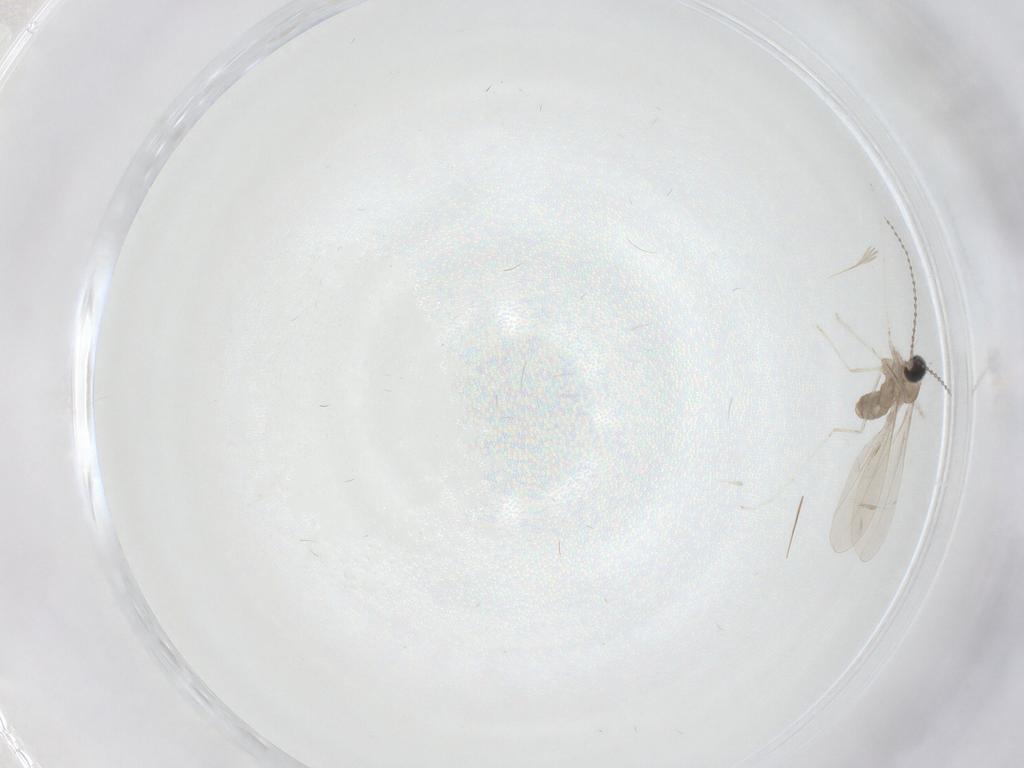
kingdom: Animalia
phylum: Arthropoda
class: Insecta
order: Diptera
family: Cecidomyiidae
